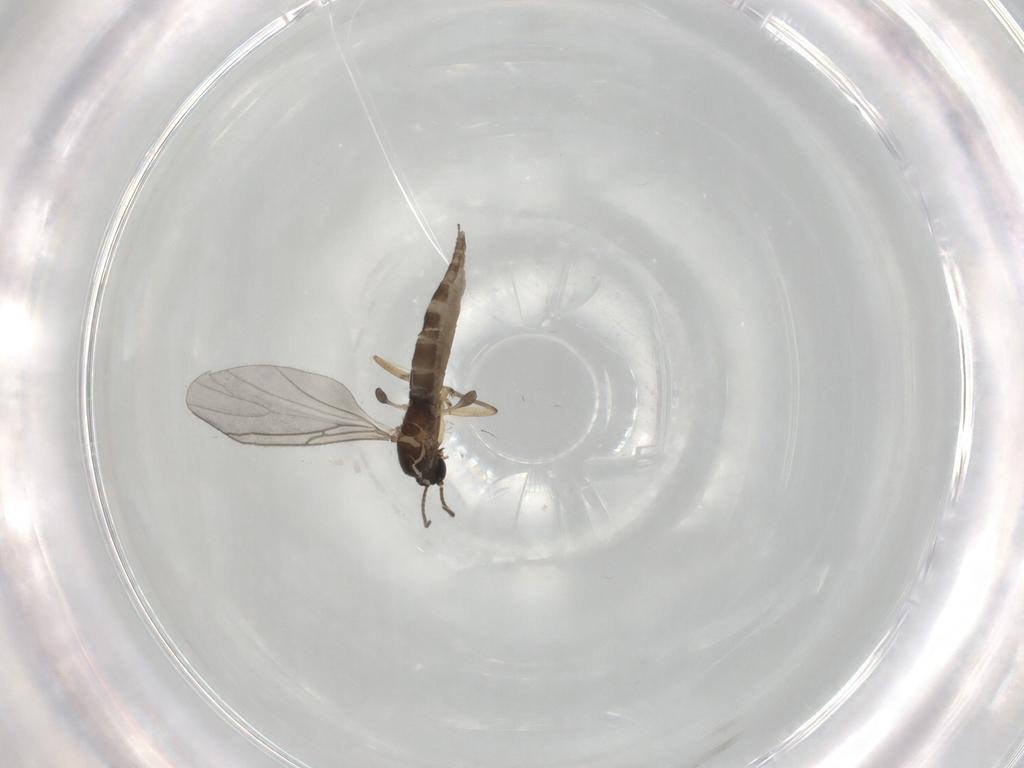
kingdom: Animalia
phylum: Arthropoda
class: Insecta
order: Diptera
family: Sciaridae
